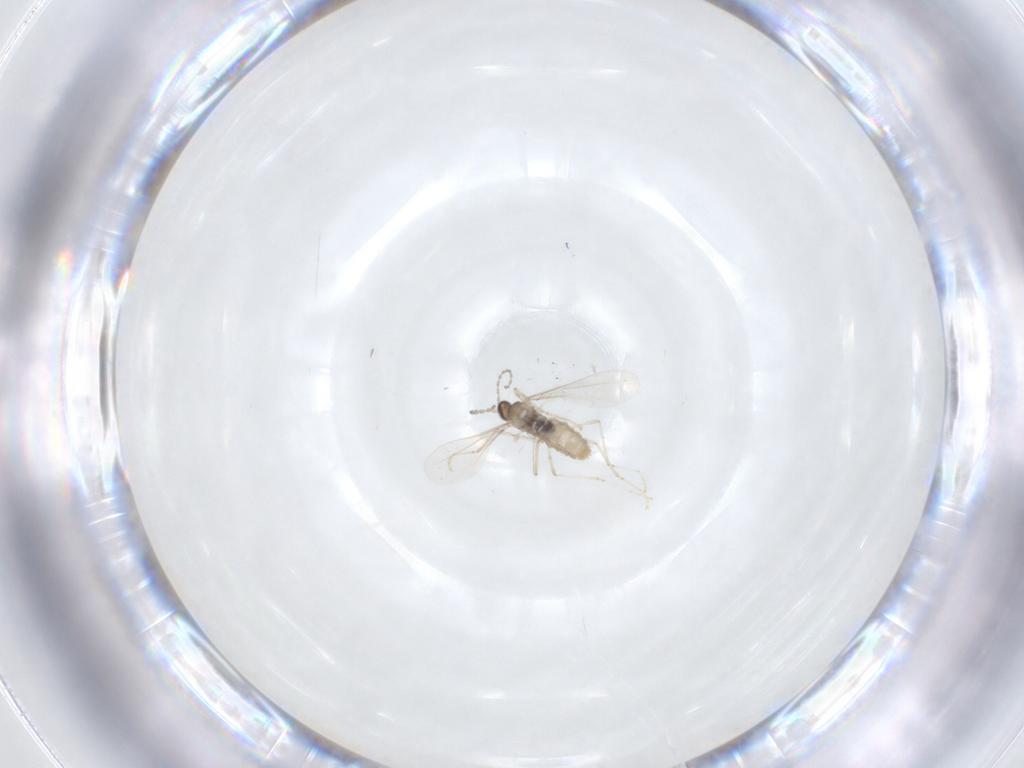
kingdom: Animalia
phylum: Arthropoda
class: Insecta
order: Diptera
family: Cecidomyiidae
